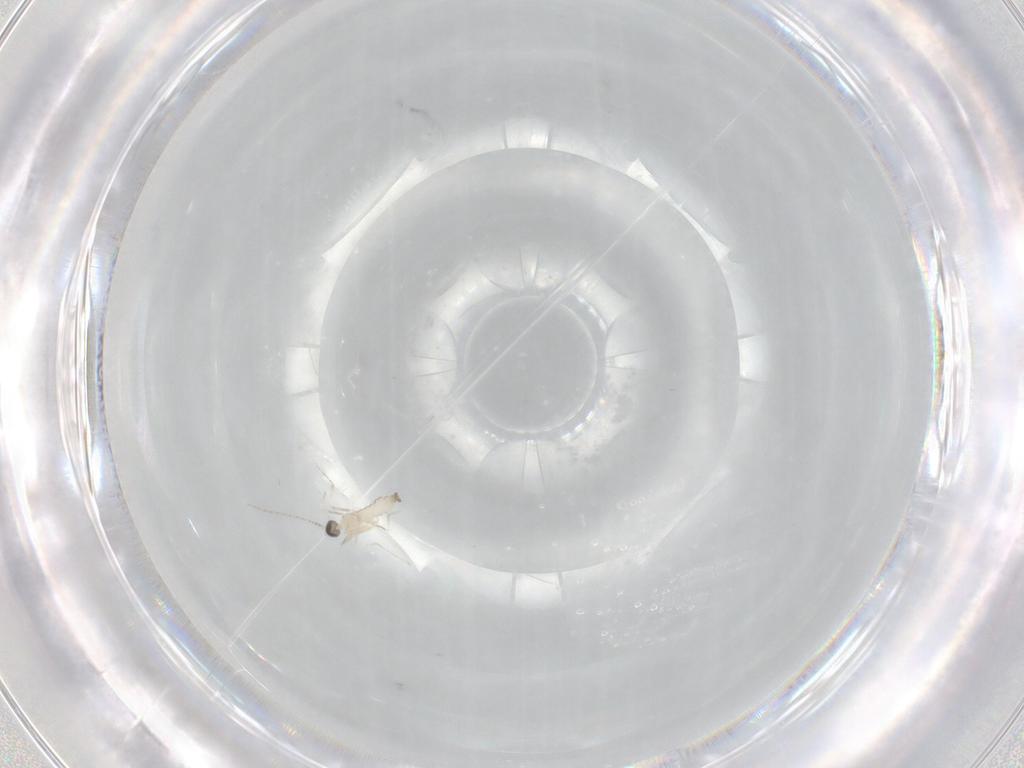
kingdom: Animalia
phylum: Arthropoda
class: Insecta
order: Diptera
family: Cecidomyiidae
